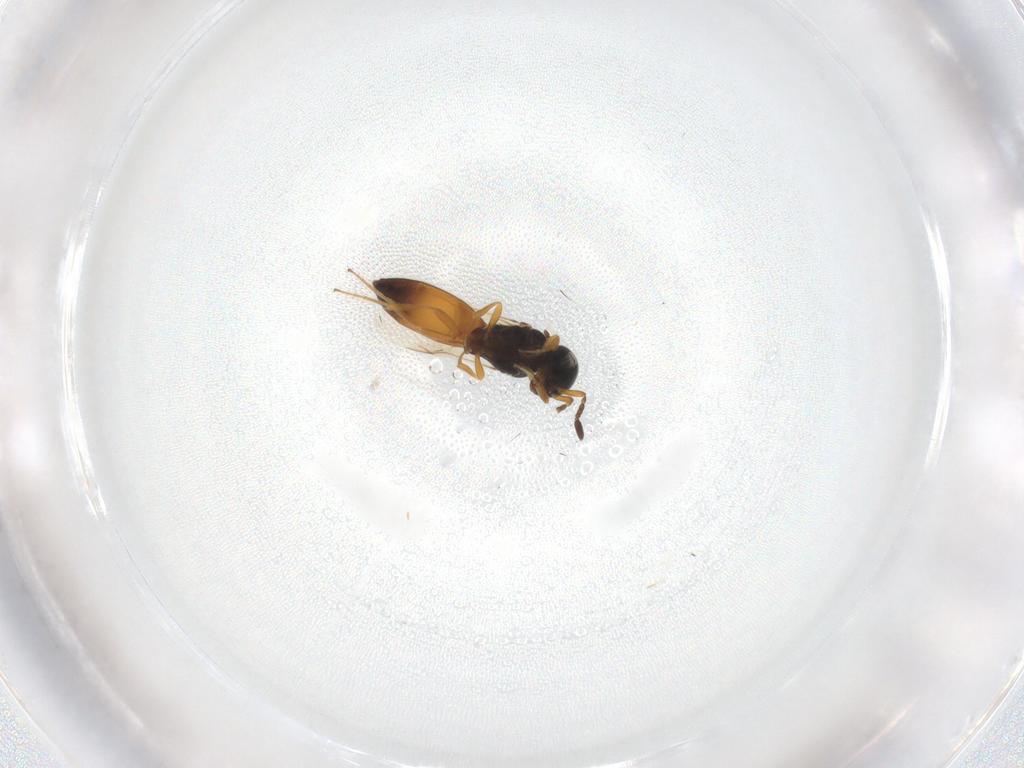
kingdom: Animalia
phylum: Arthropoda
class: Insecta
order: Hymenoptera
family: Scelionidae
